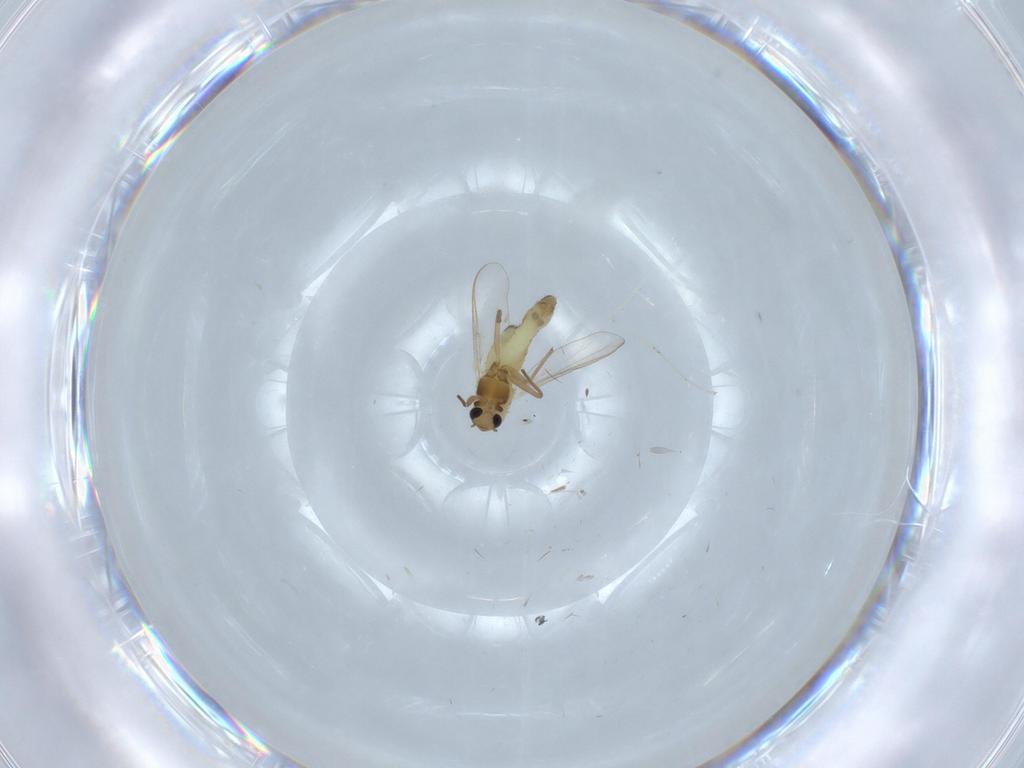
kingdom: Animalia
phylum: Arthropoda
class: Insecta
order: Diptera
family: Chironomidae
